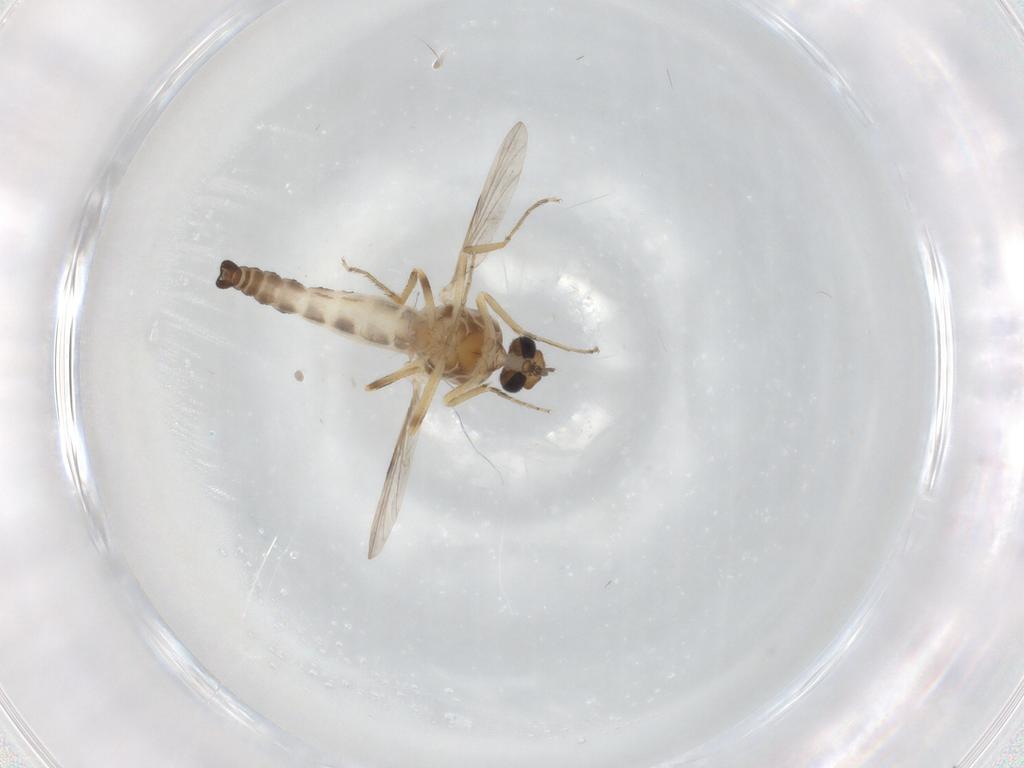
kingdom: Animalia
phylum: Arthropoda
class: Insecta
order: Diptera
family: Ceratopogonidae
